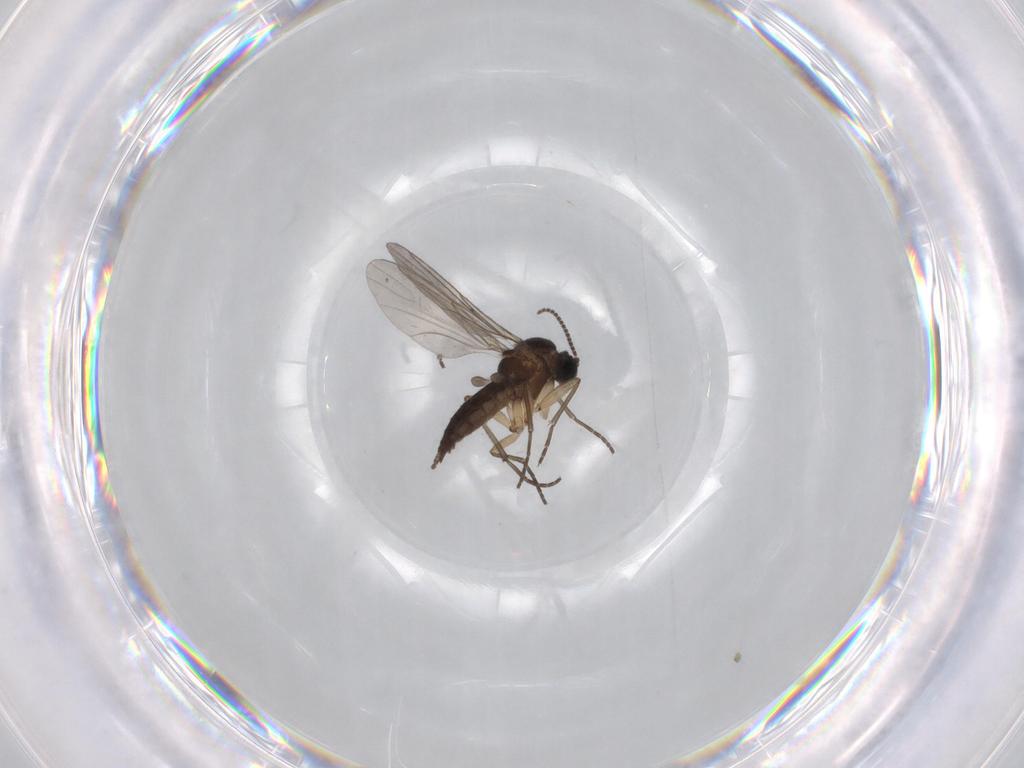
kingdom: Animalia
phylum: Arthropoda
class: Insecta
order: Diptera
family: Sciaridae
